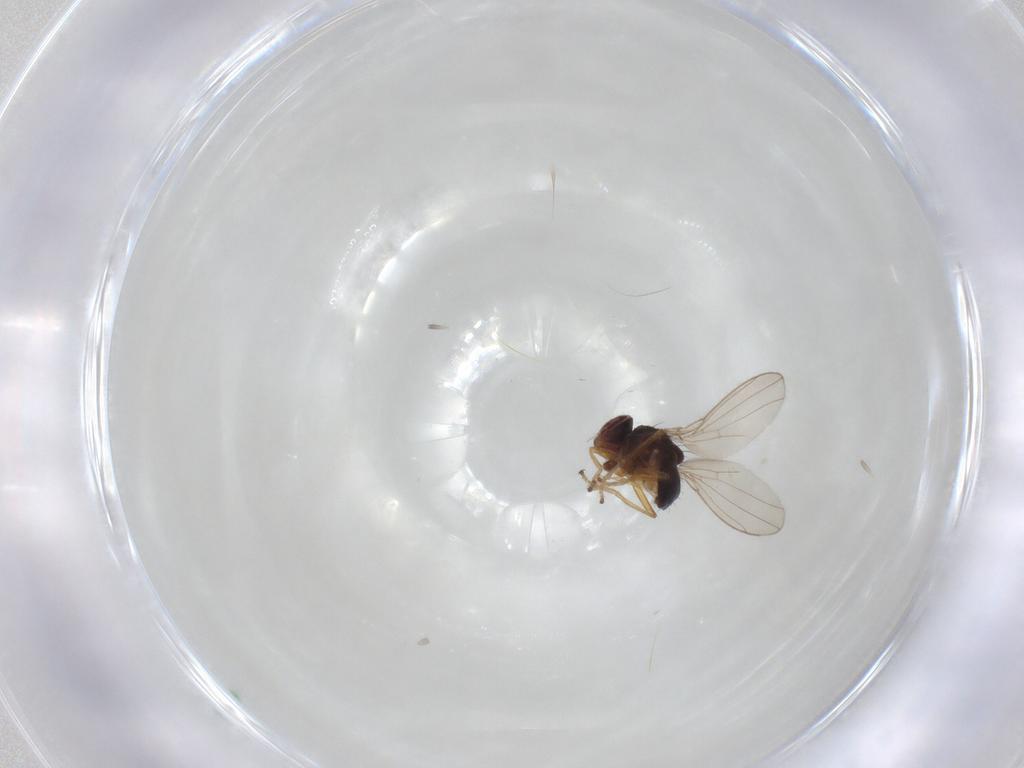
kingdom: Animalia
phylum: Arthropoda
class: Insecta
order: Diptera
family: Ephydridae
